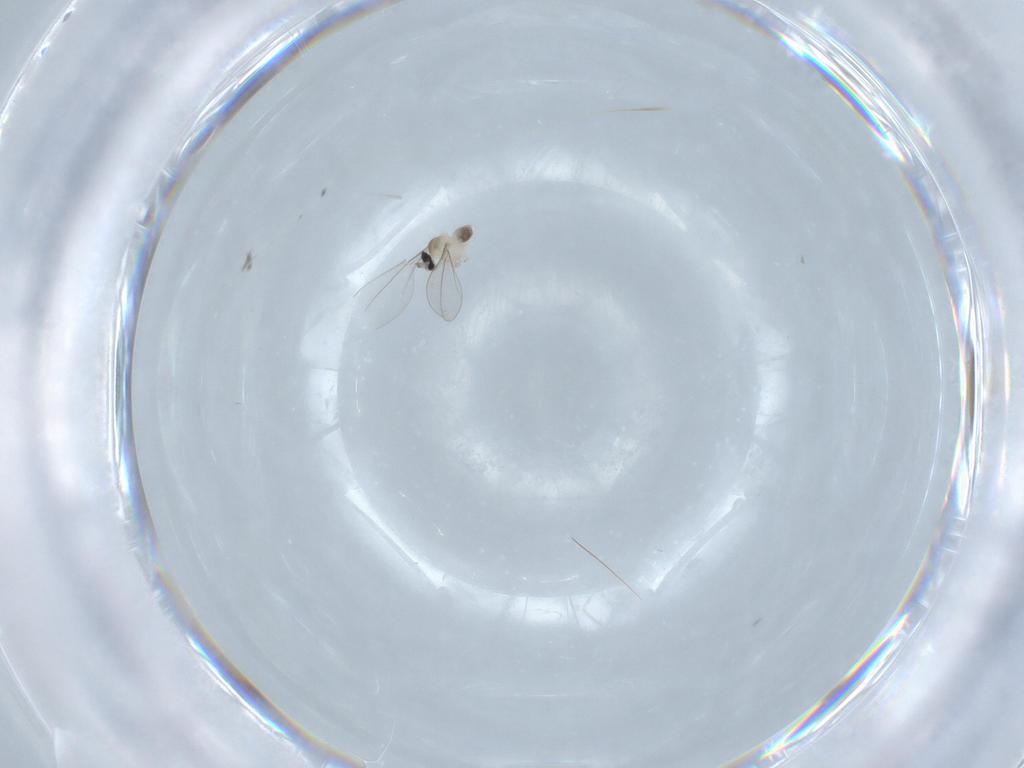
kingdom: Animalia
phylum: Arthropoda
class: Insecta
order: Diptera
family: Cecidomyiidae
